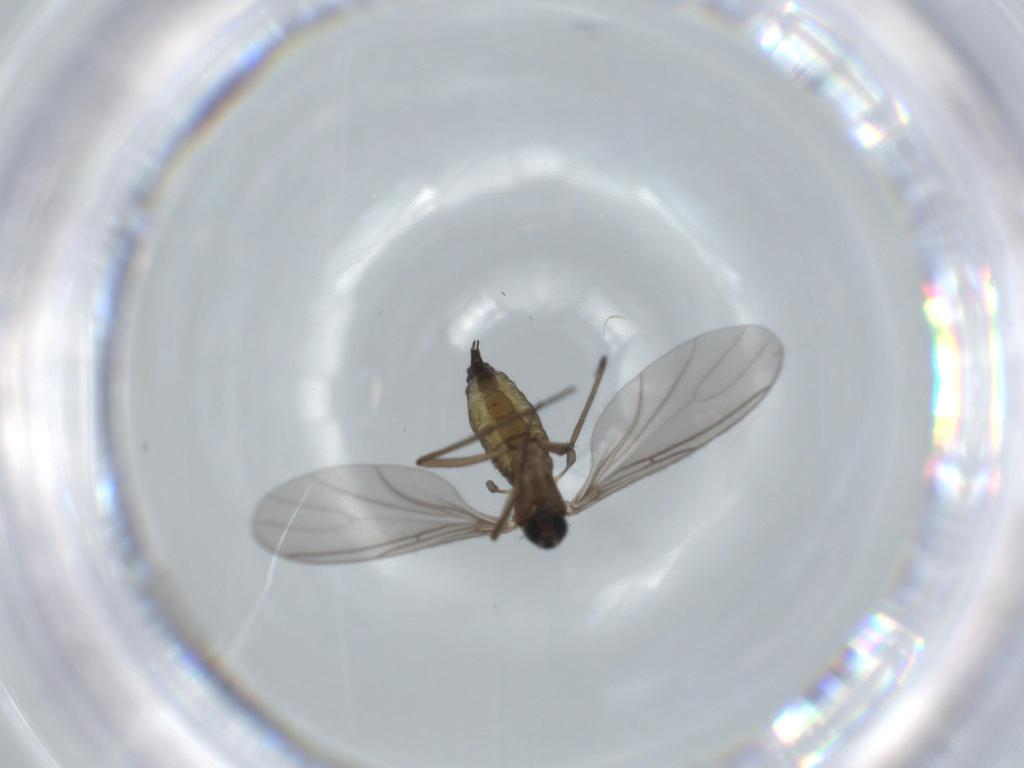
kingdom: Animalia
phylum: Arthropoda
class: Insecta
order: Diptera
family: Sciaridae
